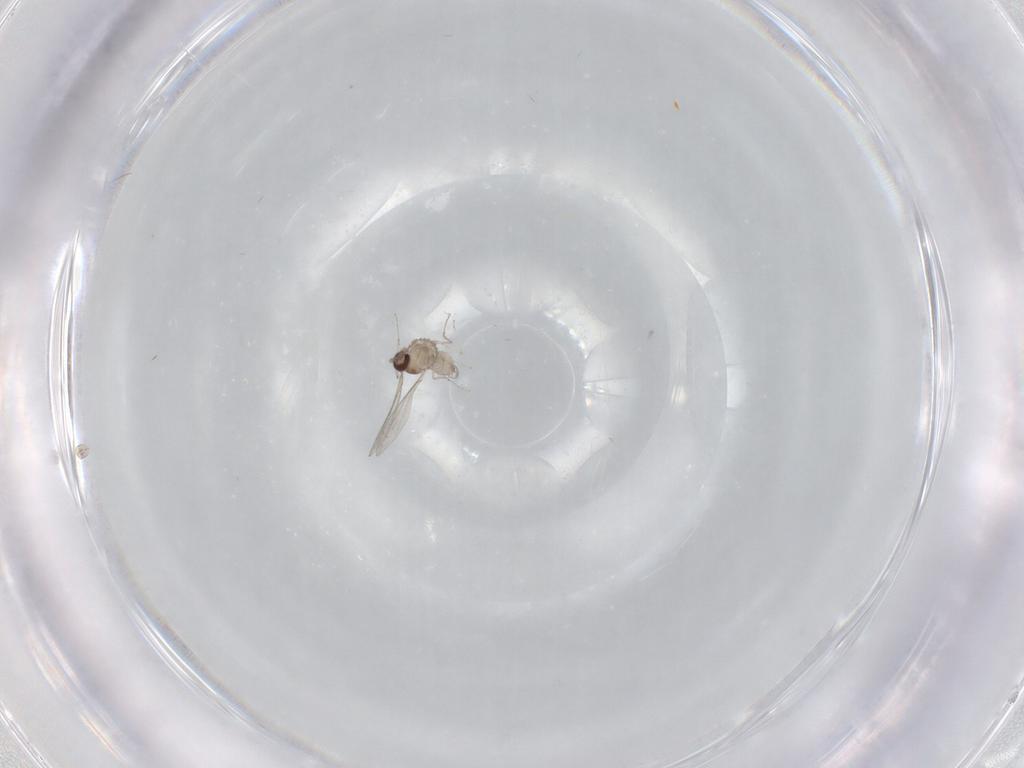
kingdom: Animalia
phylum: Arthropoda
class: Insecta
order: Diptera
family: Cecidomyiidae
